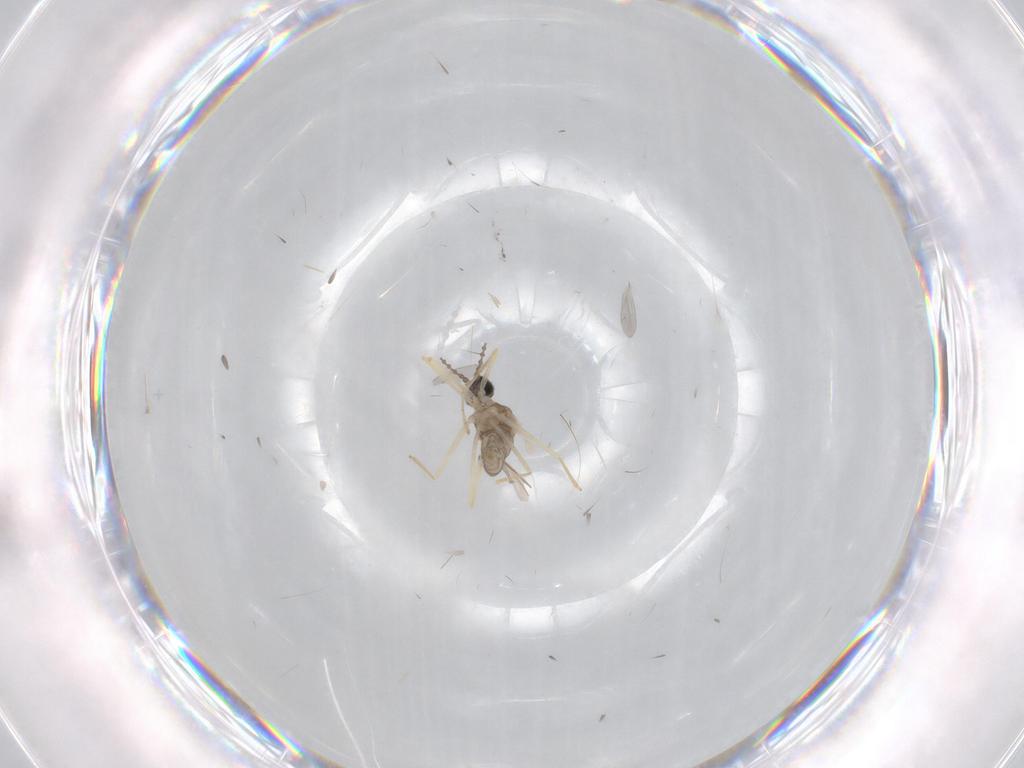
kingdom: Animalia
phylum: Arthropoda
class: Insecta
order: Diptera
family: Cecidomyiidae
